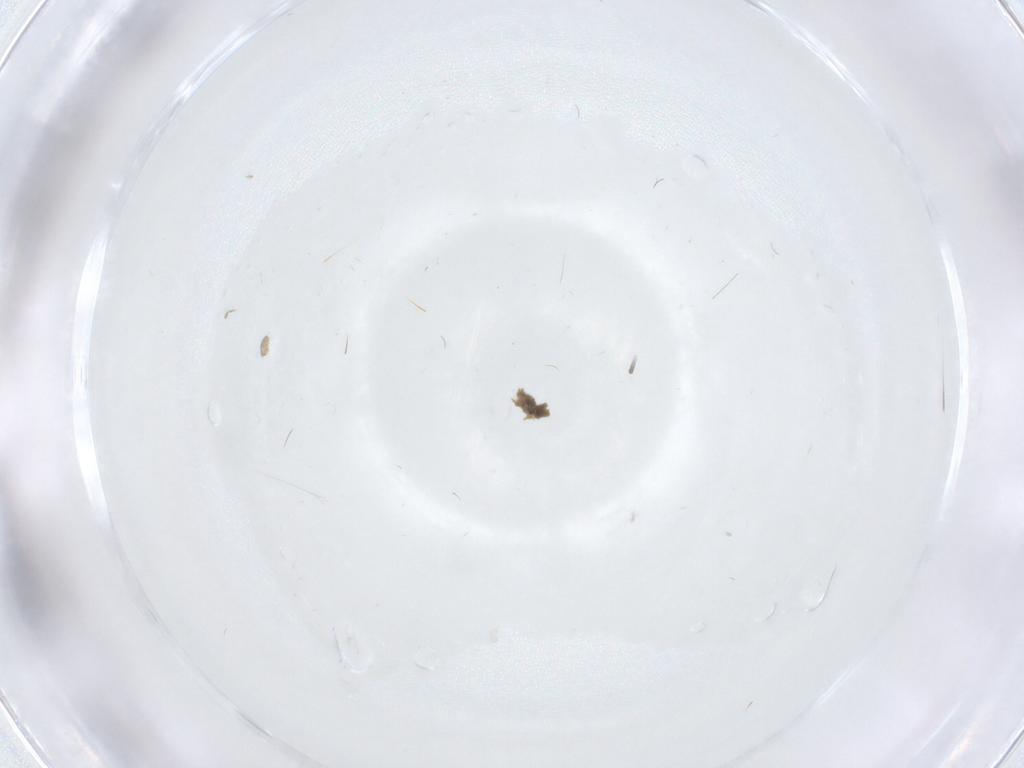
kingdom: Animalia
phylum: Arthropoda
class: Insecta
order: Diptera
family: Ceratopogonidae
